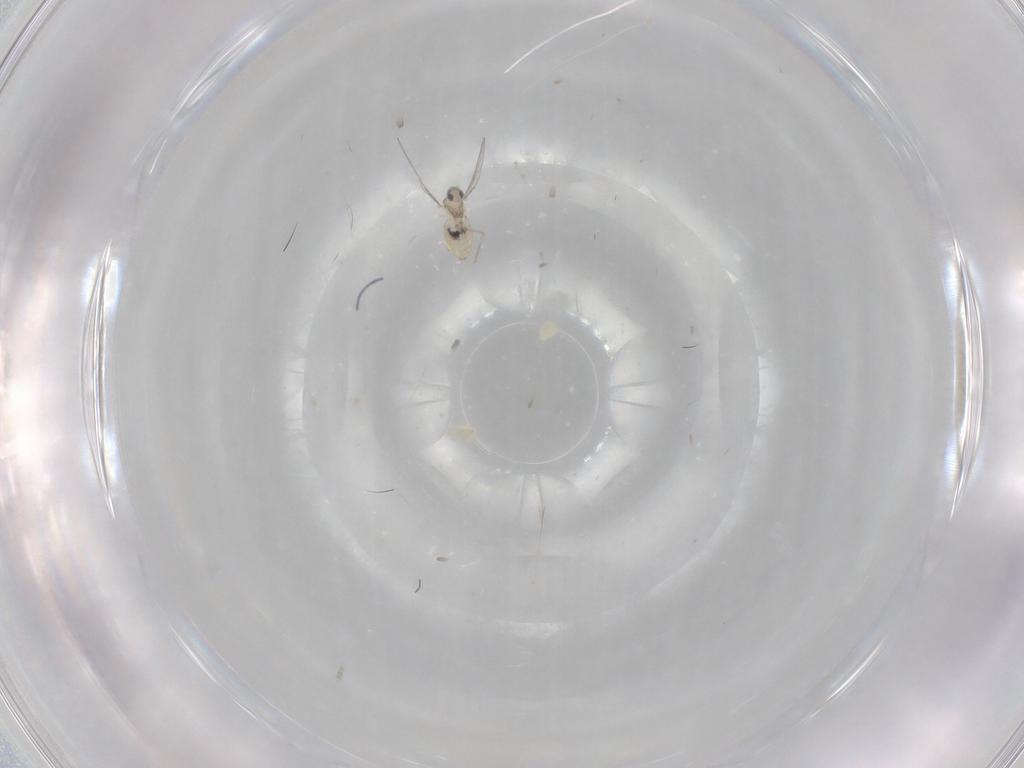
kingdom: Animalia
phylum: Arthropoda
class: Insecta
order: Diptera
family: Cecidomyiidae
